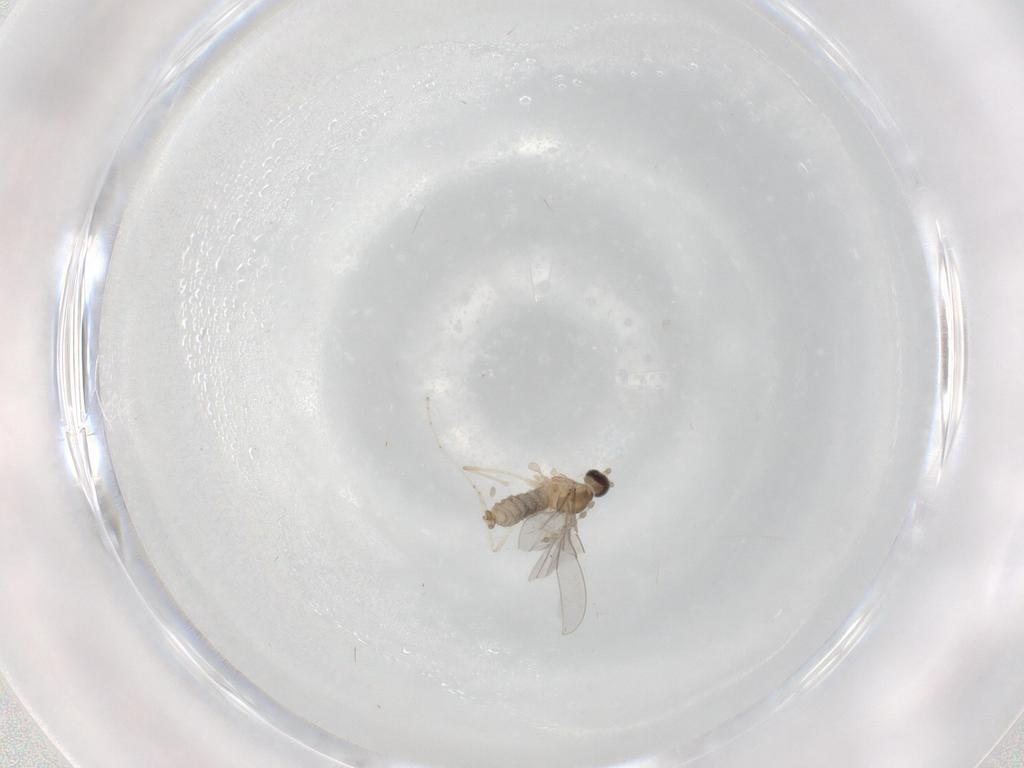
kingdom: Animalia
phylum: Arthropoda
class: Insecta
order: Diptera
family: Cecidomyiidae
